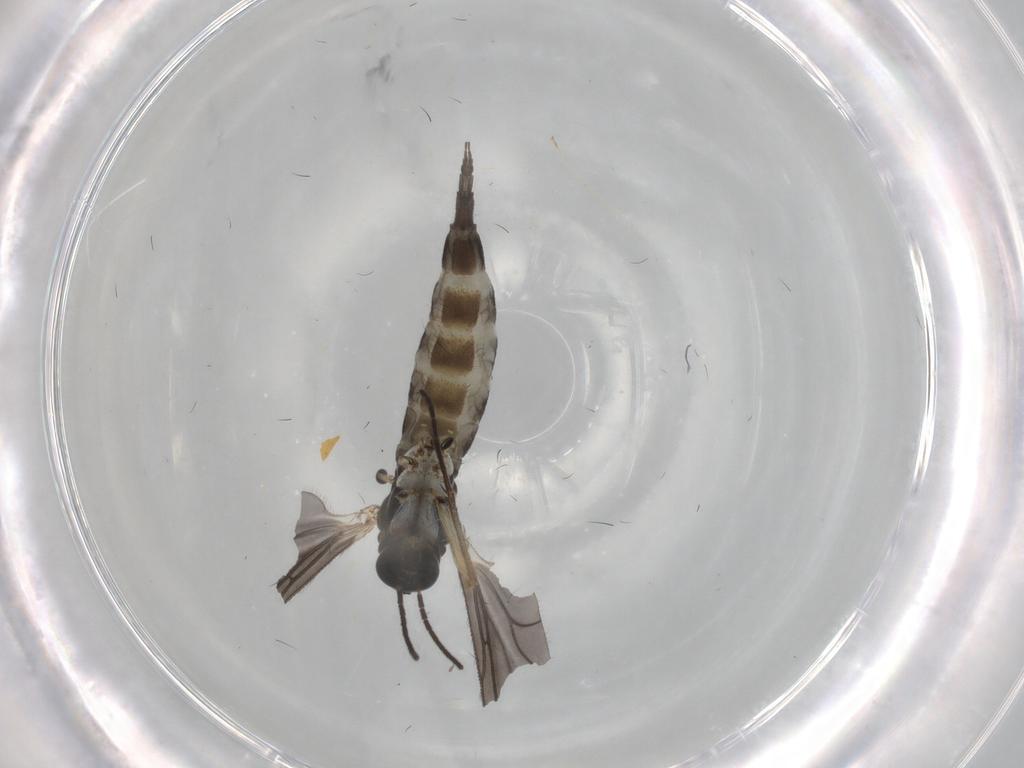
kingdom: Animalia
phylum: Arthropoda
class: Insecta
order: Diptera
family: Sciaridae
